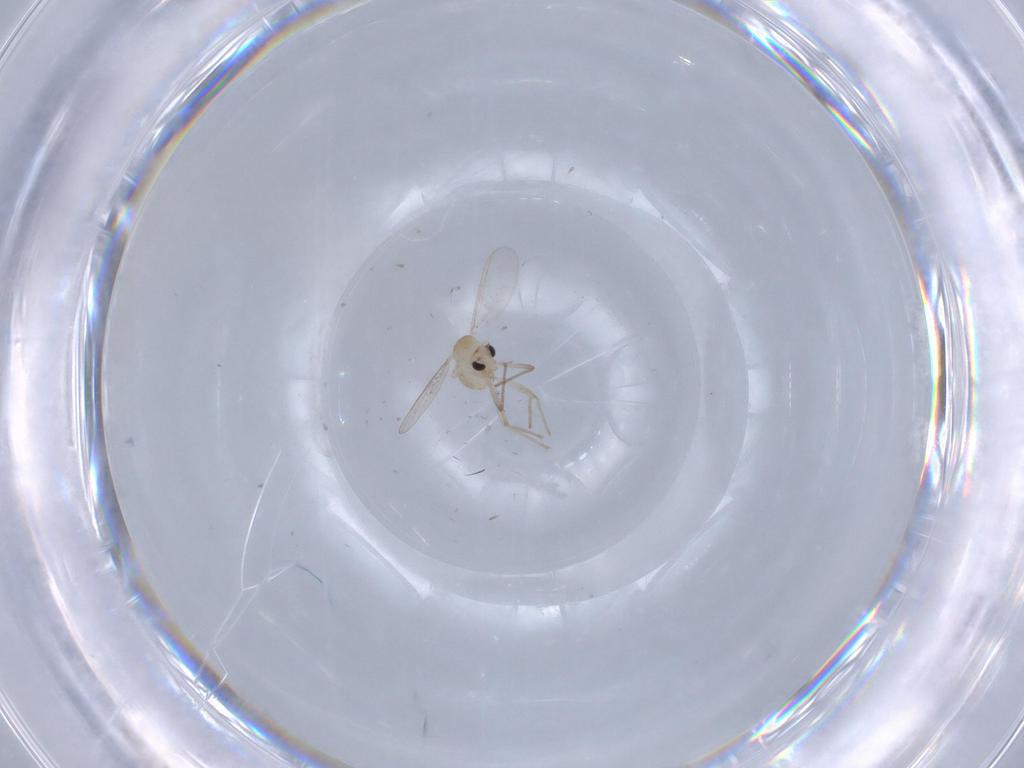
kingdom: Animalia
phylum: Arthropoda
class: Insecta
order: Diptera
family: Chironomidae
